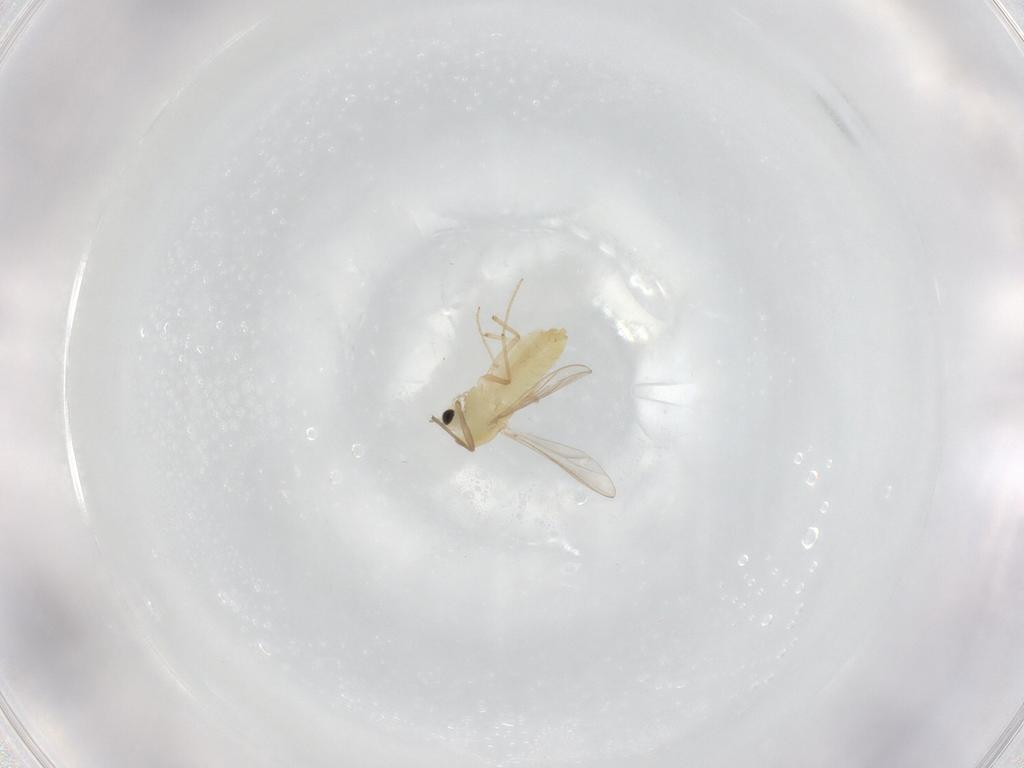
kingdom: Animalia
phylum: Arthropoda
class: Insecta
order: Diptera
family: Chironomidae
